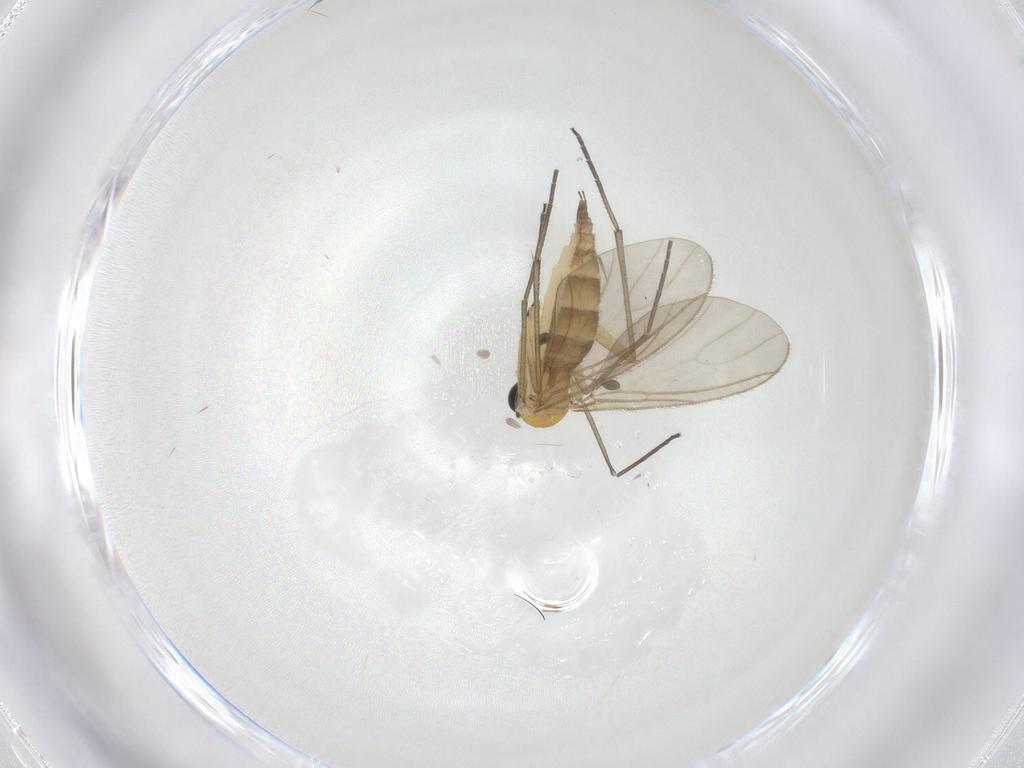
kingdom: Animalia
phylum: Arthropoda
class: Insecta
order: Diptera
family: Sciaridae
